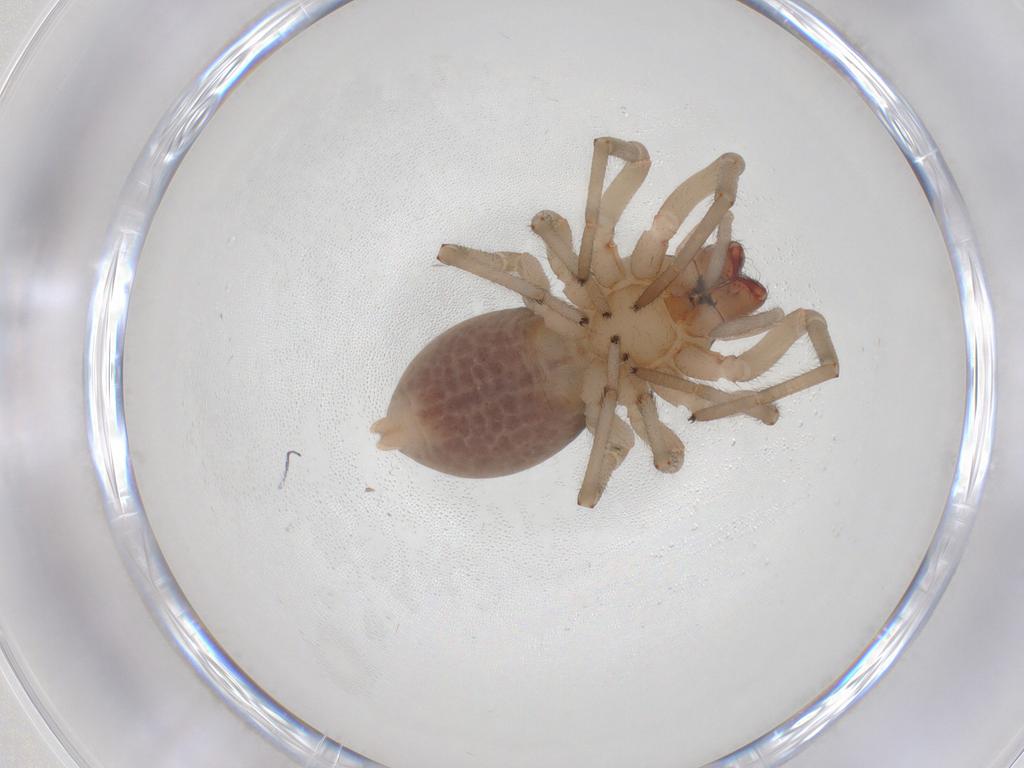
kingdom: Animalia
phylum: Arthropoda
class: Arachnida
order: Araneae
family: Trachelidae
